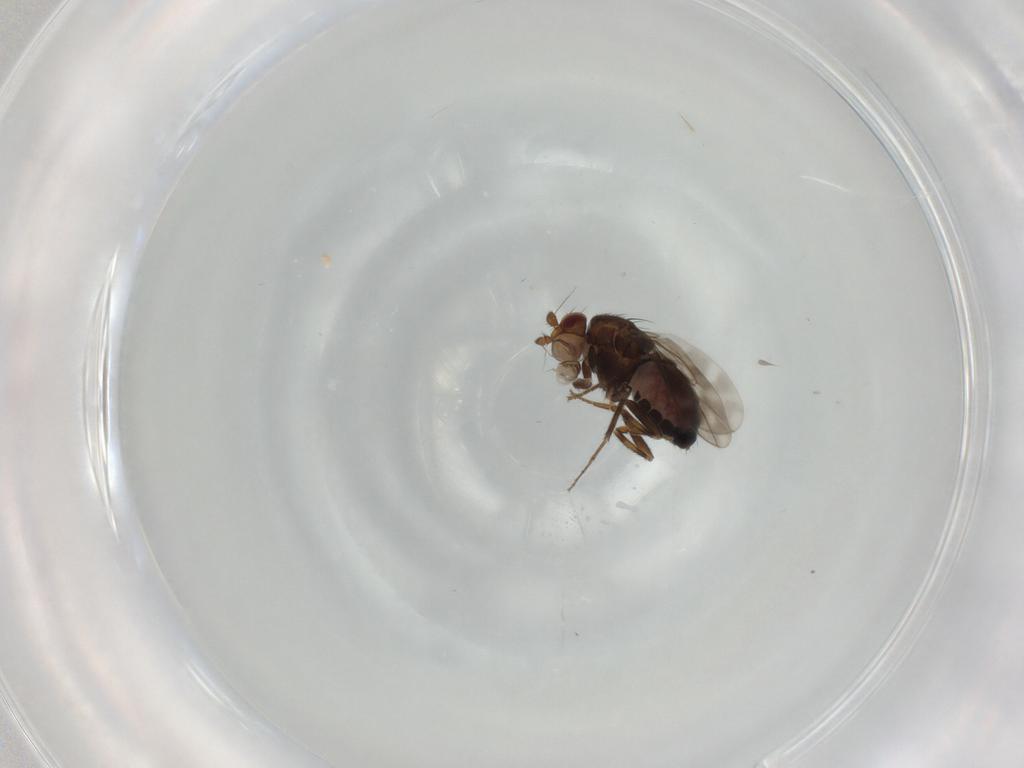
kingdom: Animalia
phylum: Arthropoda
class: Insecta
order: Diptera
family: Sphaeroceridae
